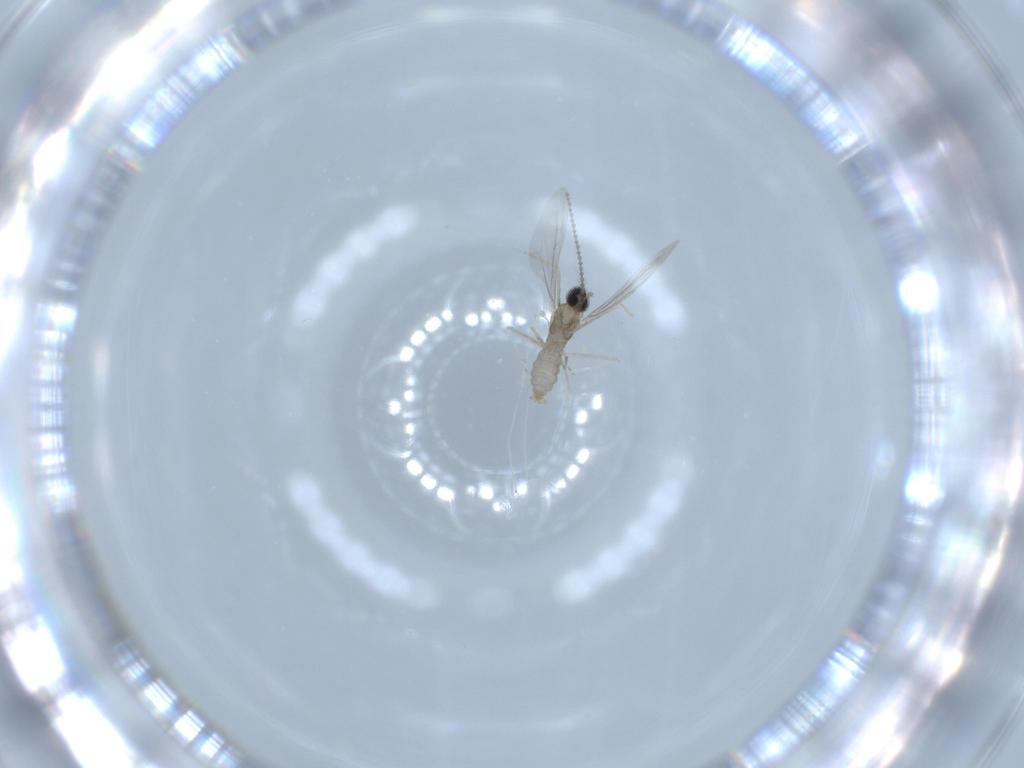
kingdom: Animalia
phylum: Arthropoda
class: Insecta
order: Diptera
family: Cecidomyiidae
